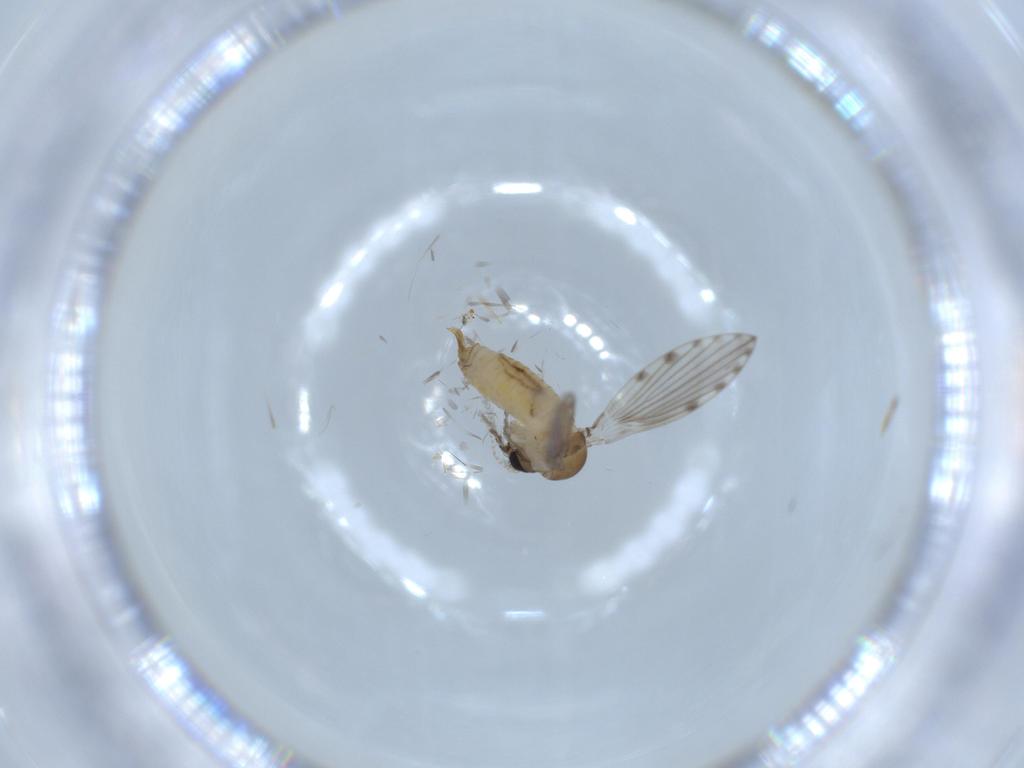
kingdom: Animalia
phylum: Arthropoda
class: Insecta
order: Diptera
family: Psychodidae
